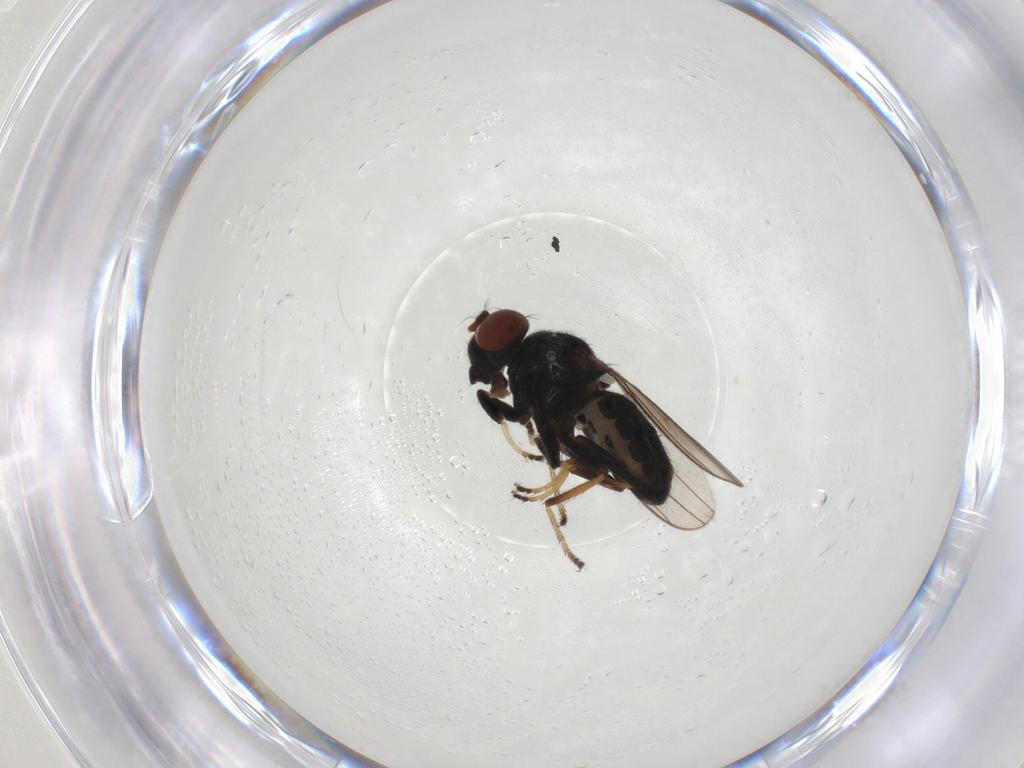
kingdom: Animalia
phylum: Arthropoda
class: Insecta
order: Diptera
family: Ephydridae
